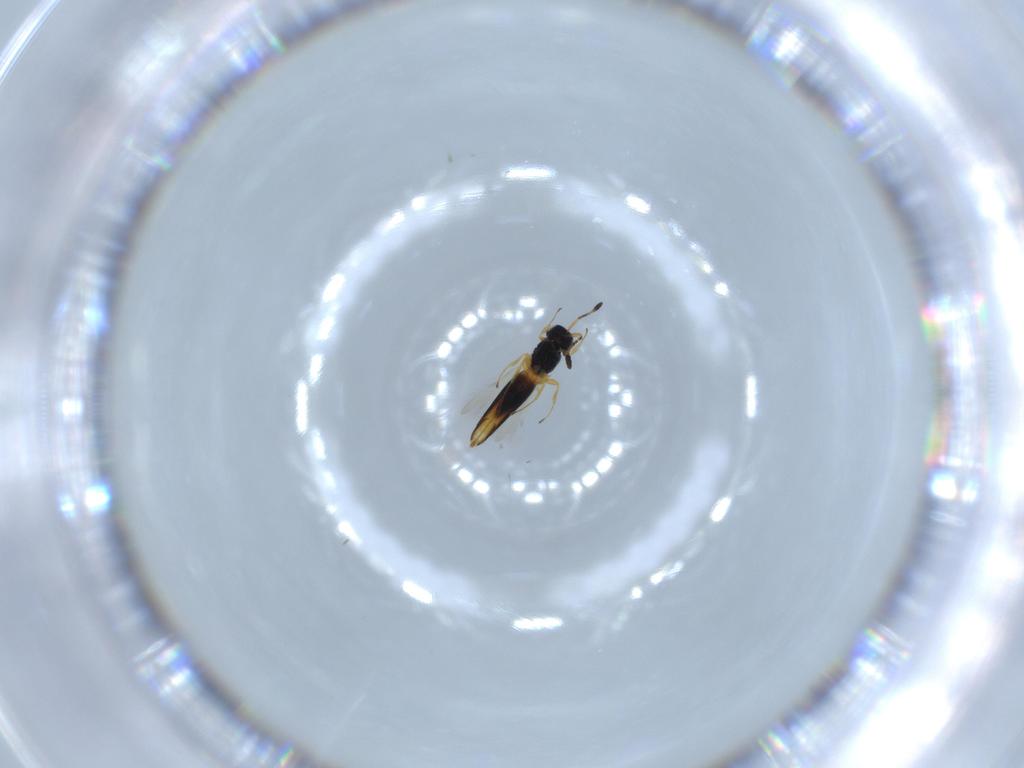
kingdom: Animalia
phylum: Arthropoda
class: Insecta
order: Hymenoptera
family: Scelionidae
